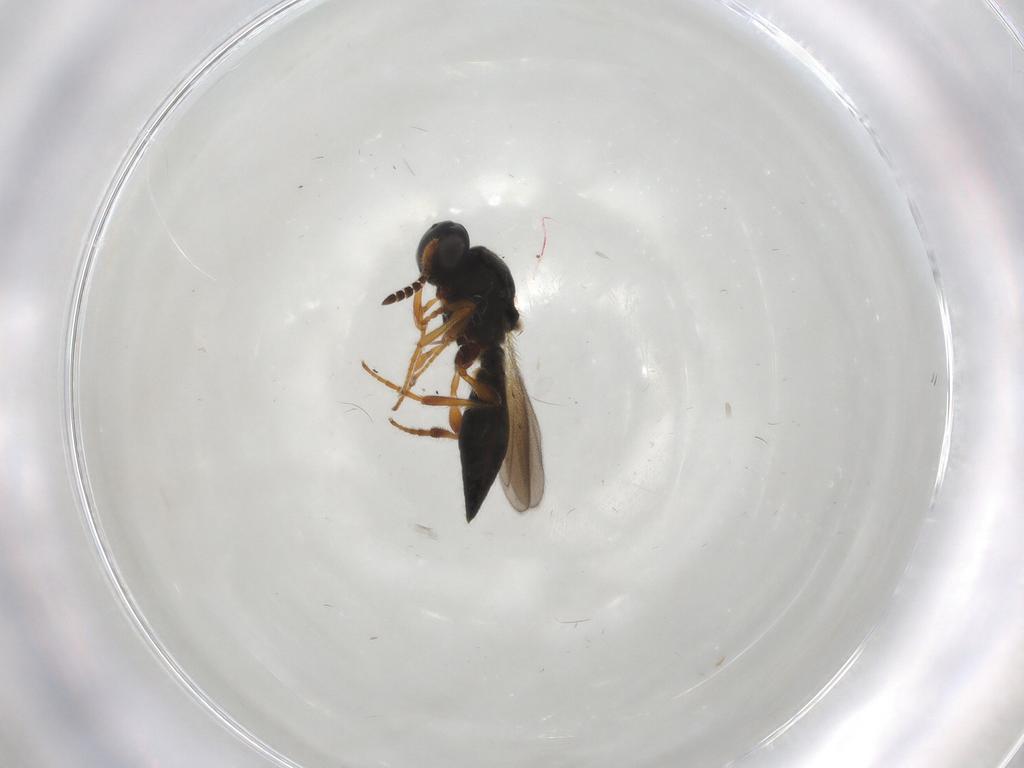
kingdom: Animalia
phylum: Arthropoda
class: Insecta
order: Hymenoptera
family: Platygastridae
